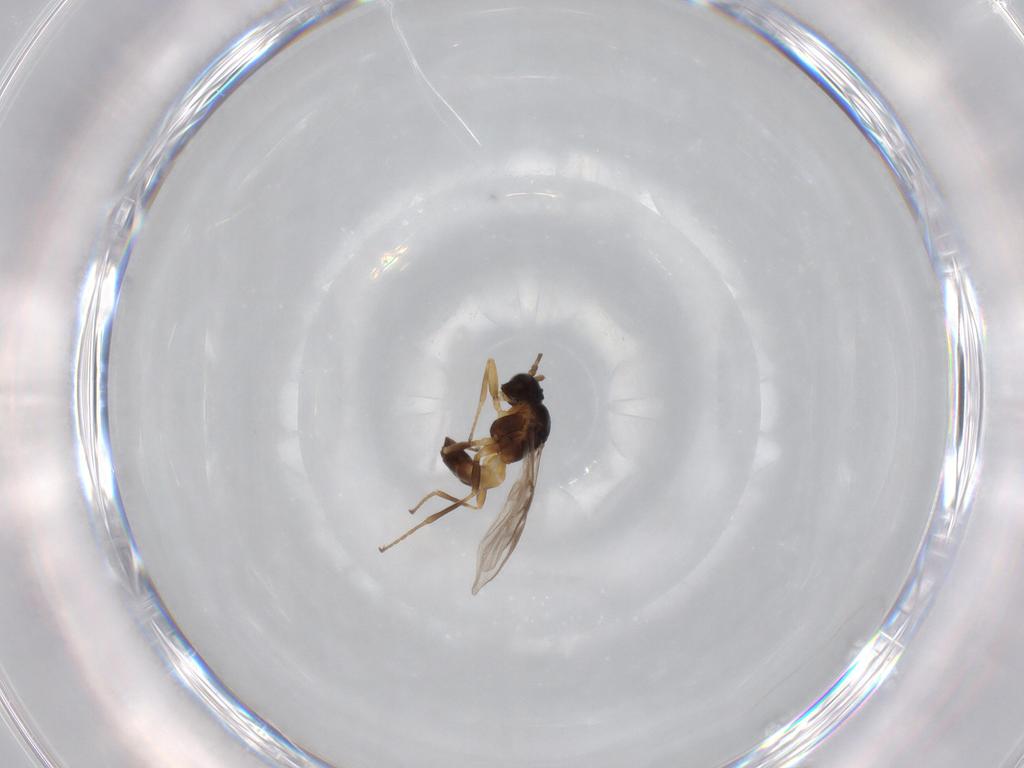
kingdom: Animalia
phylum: Arthropoda
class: Insecta
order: Hymenoptera
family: Braconidae
